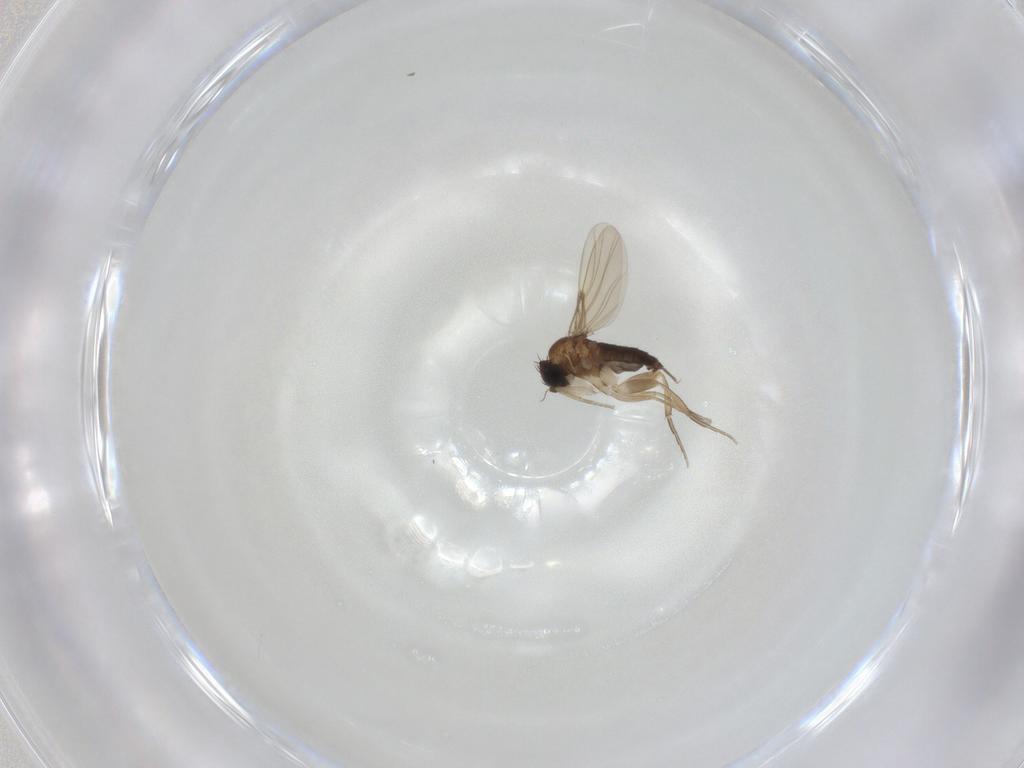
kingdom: Animalia
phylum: Arthropoda
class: Insecta
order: Diptera
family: Phoridae
